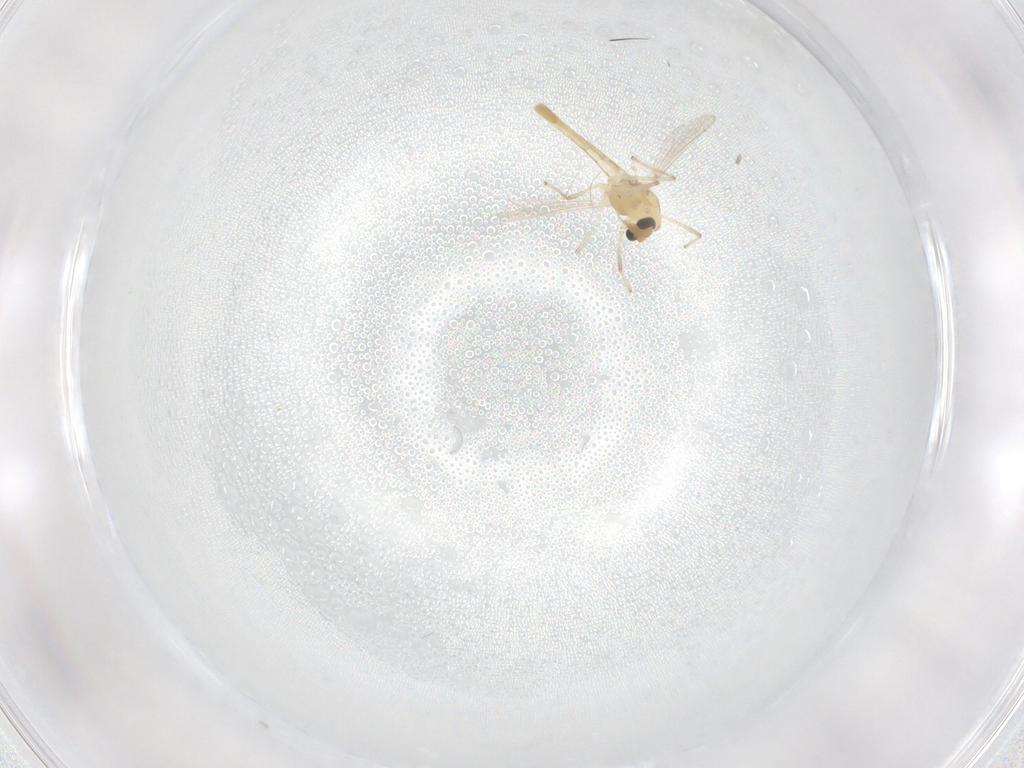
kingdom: Animalia
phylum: Arthropoda
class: Insecta
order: Diptera
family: Chironomidae
